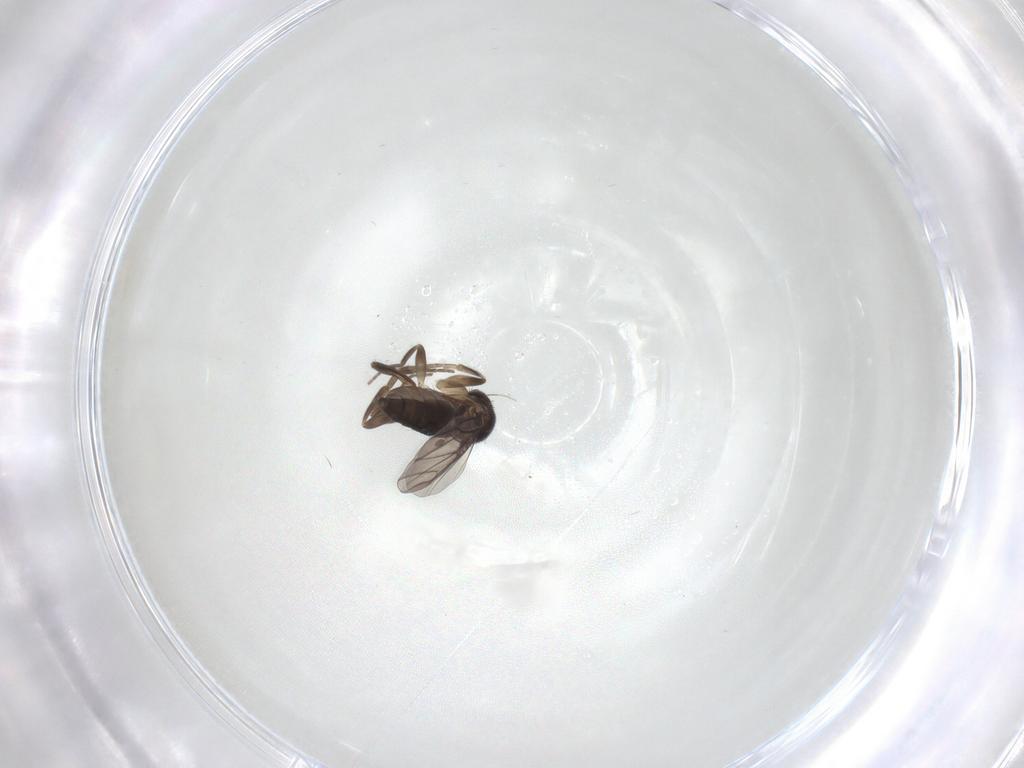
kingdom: Animalia
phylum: Arthropoda
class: Insecta
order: Diptera
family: Phoridae
